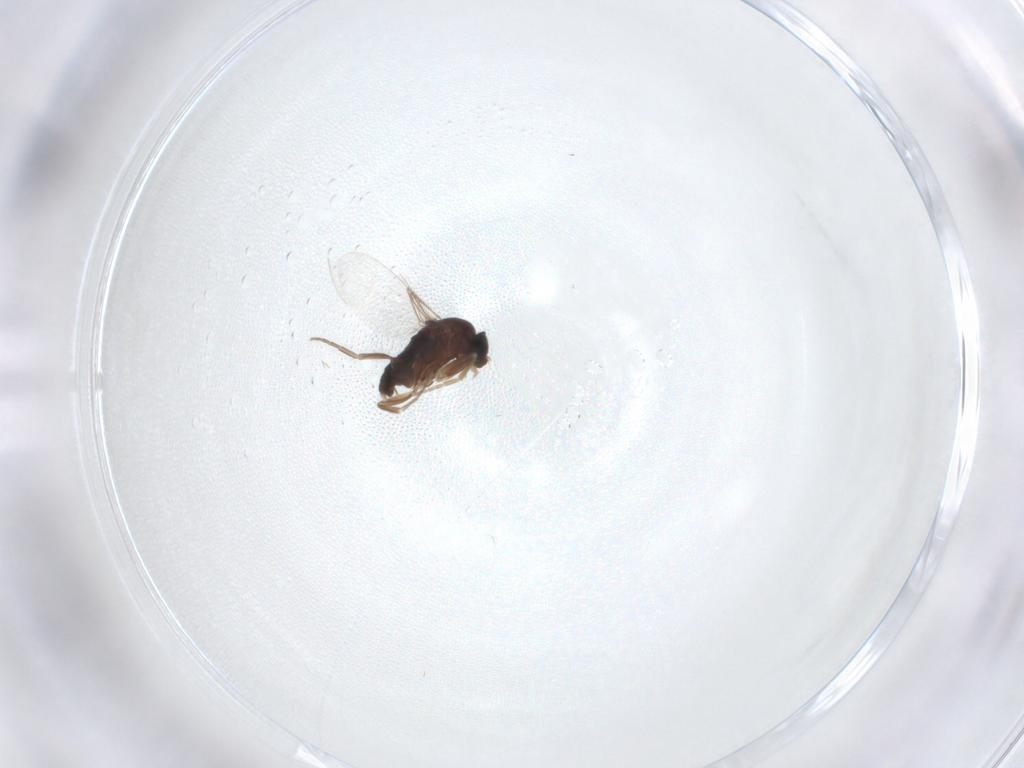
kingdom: Animalia
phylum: Arthropoda
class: Insecta
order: Diptera
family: Phoridae
